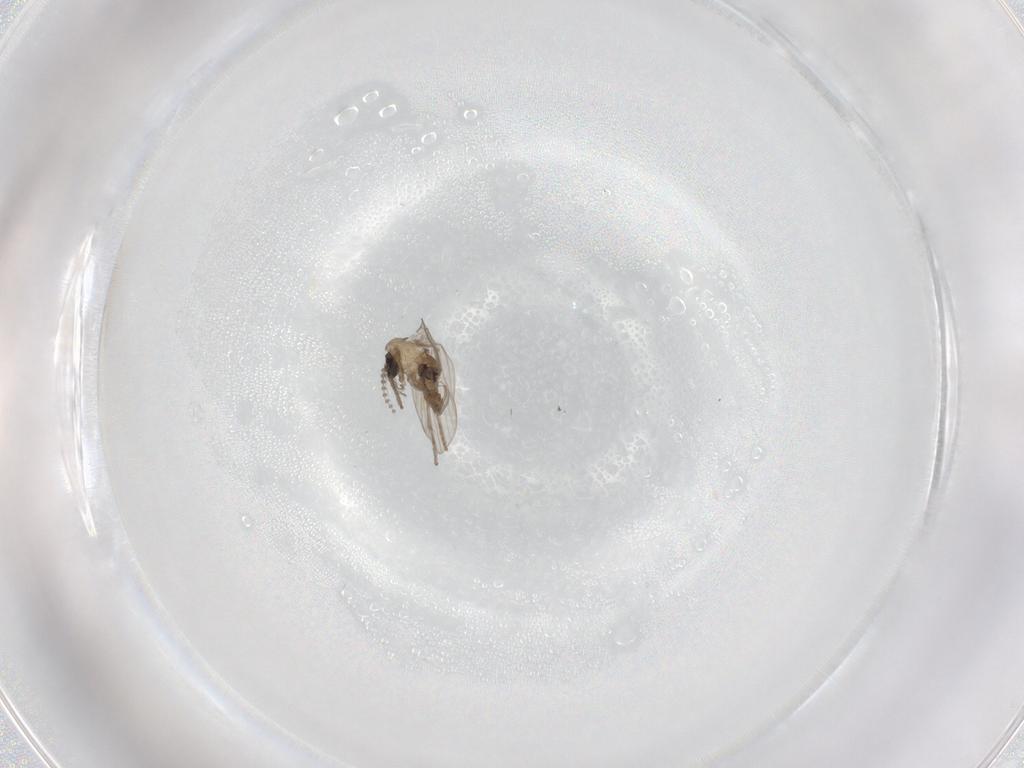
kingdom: Animalia
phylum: Arthropoda
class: Insecta
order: Diptera
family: Psychodidae
